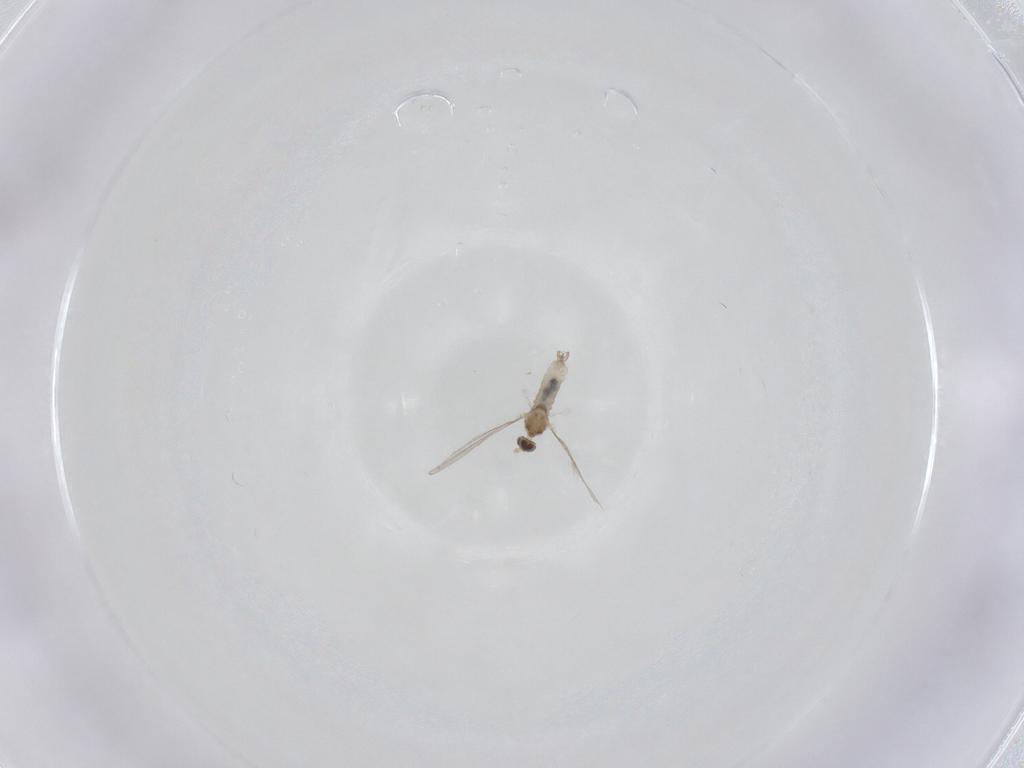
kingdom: Animalia
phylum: Arthropoda
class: Insecta
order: Diptera
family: Cecidomyiidae
